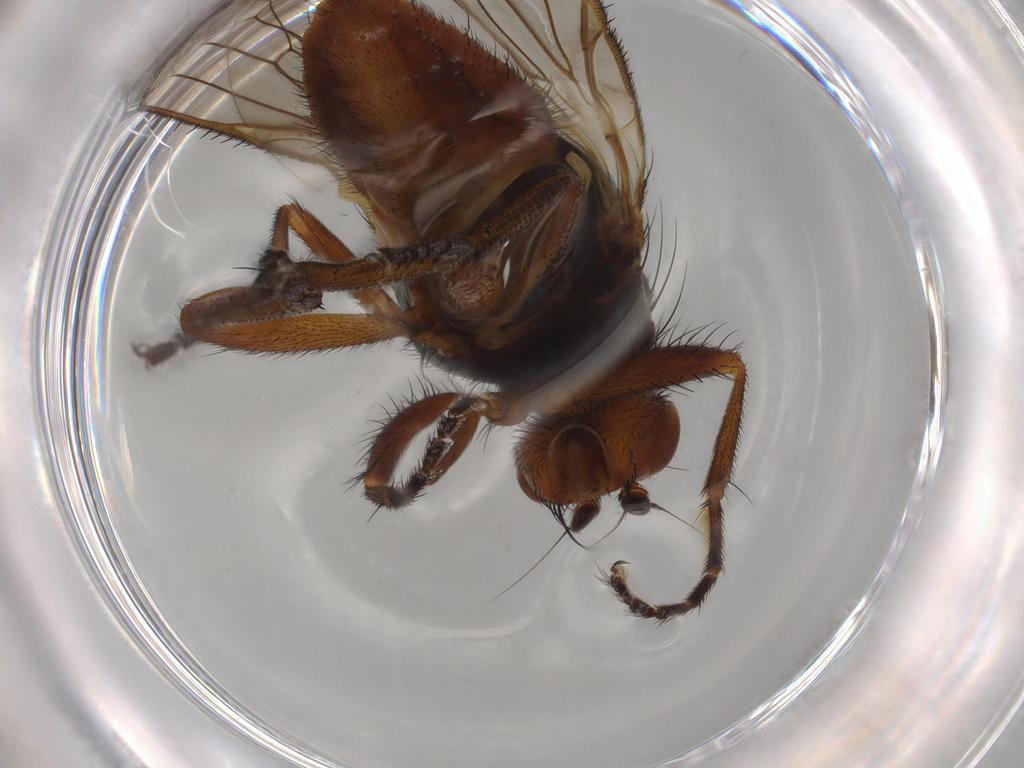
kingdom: Animalia
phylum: Arthropoda
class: Insecta
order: Diptera
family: Heleomyzidae
